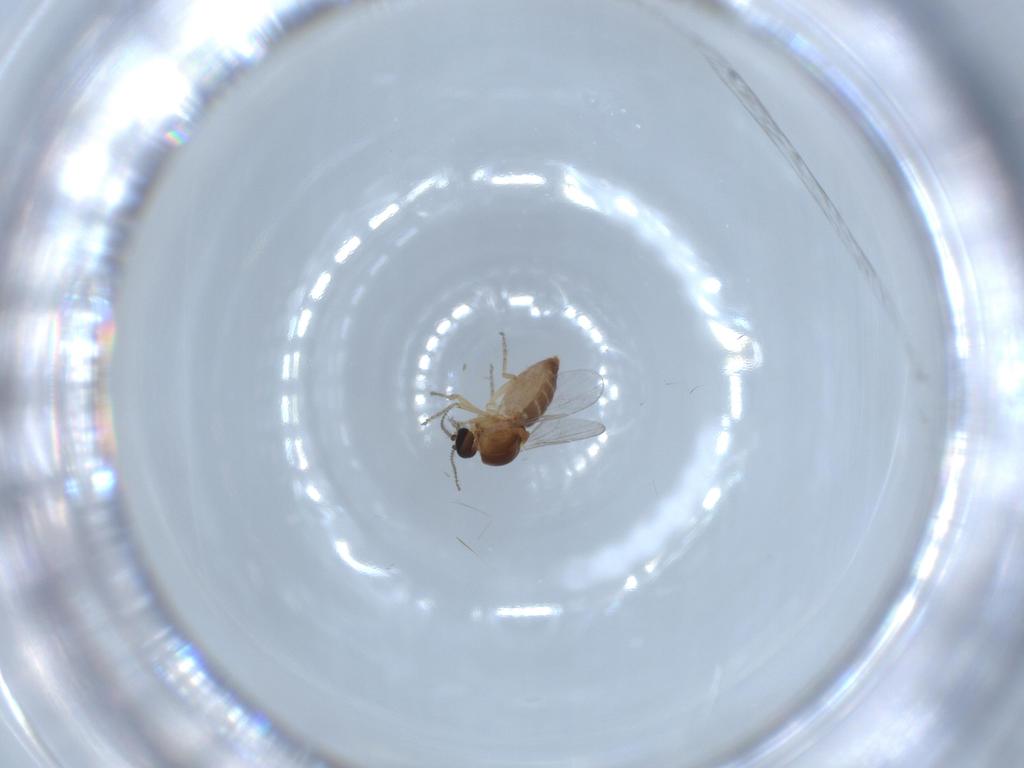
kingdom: Animalia
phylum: Arthropoda
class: Insecta
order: Diptera
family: Ceratopogonidae
